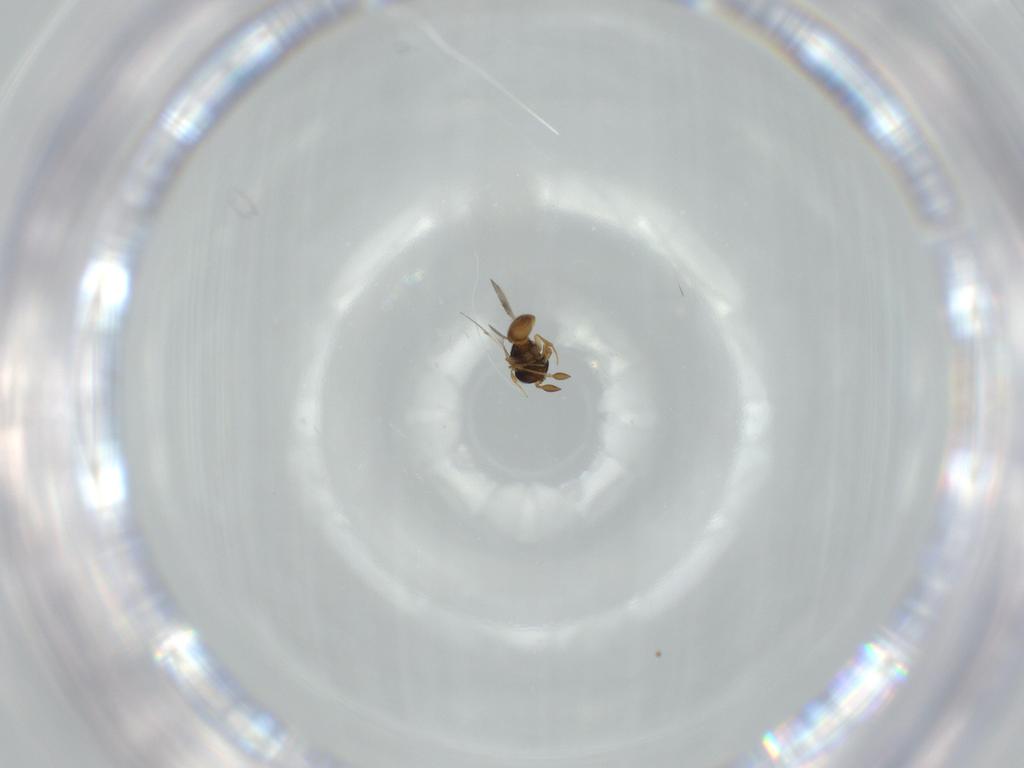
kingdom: Animalia
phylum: Arthropoda
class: Insecta
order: Hymenoptera
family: Scelionidae
